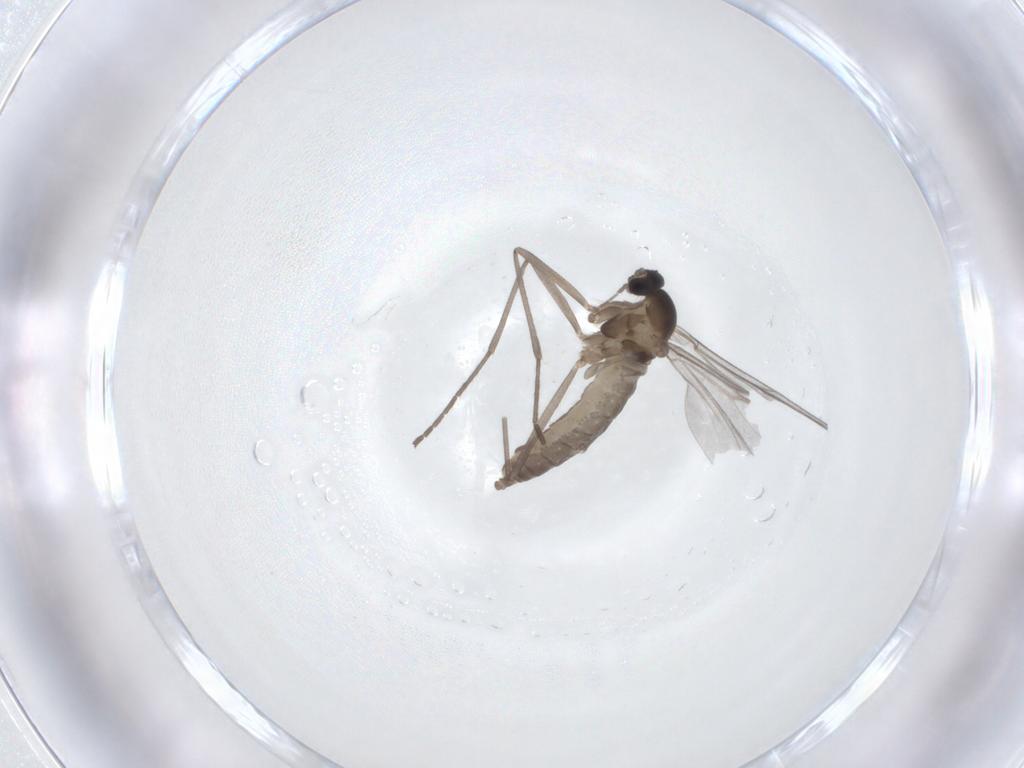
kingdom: Animalia
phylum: Arthropoda
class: Insecta
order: Diptera
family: Cecidomyiidae
